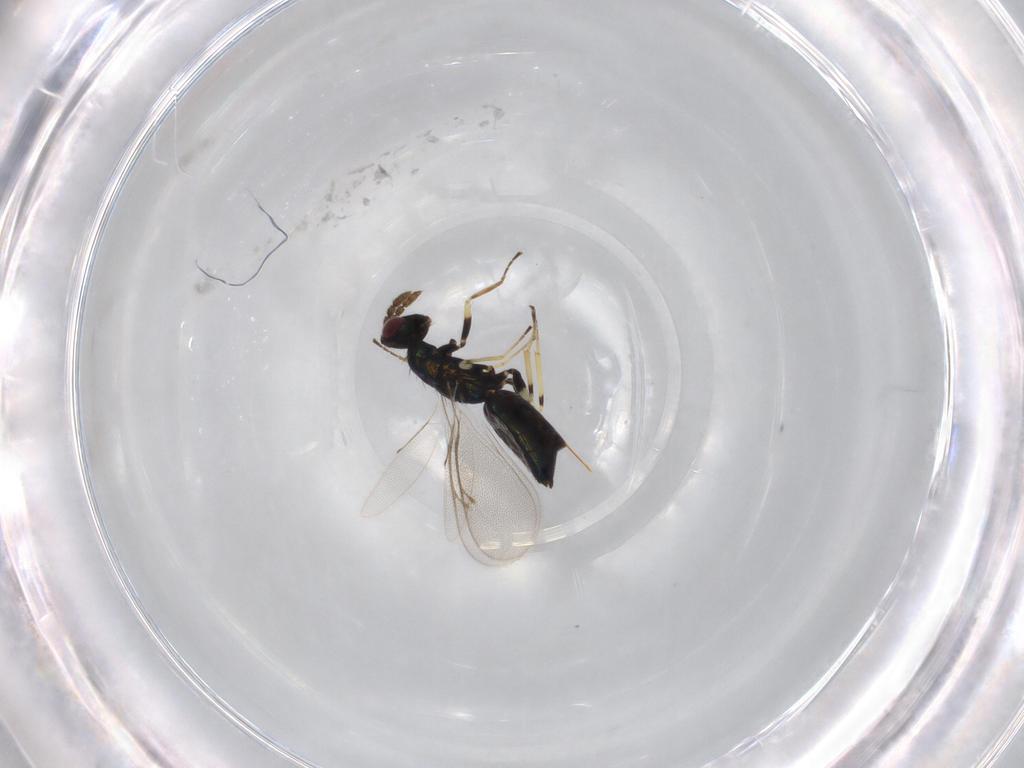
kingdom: Animalia
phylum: Arthropoda
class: Insecta
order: Hymenoptera
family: Eulophidae
